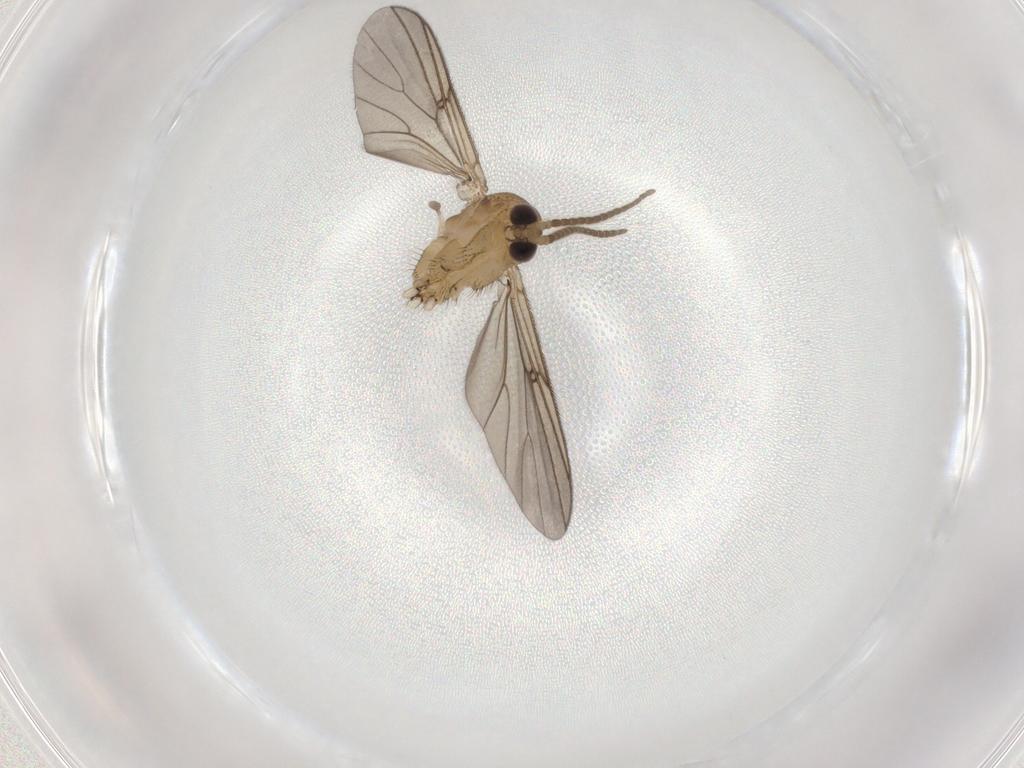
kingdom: Animalia
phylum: Arthropoda
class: Insecta
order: Diptera
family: Mycetophilidae
